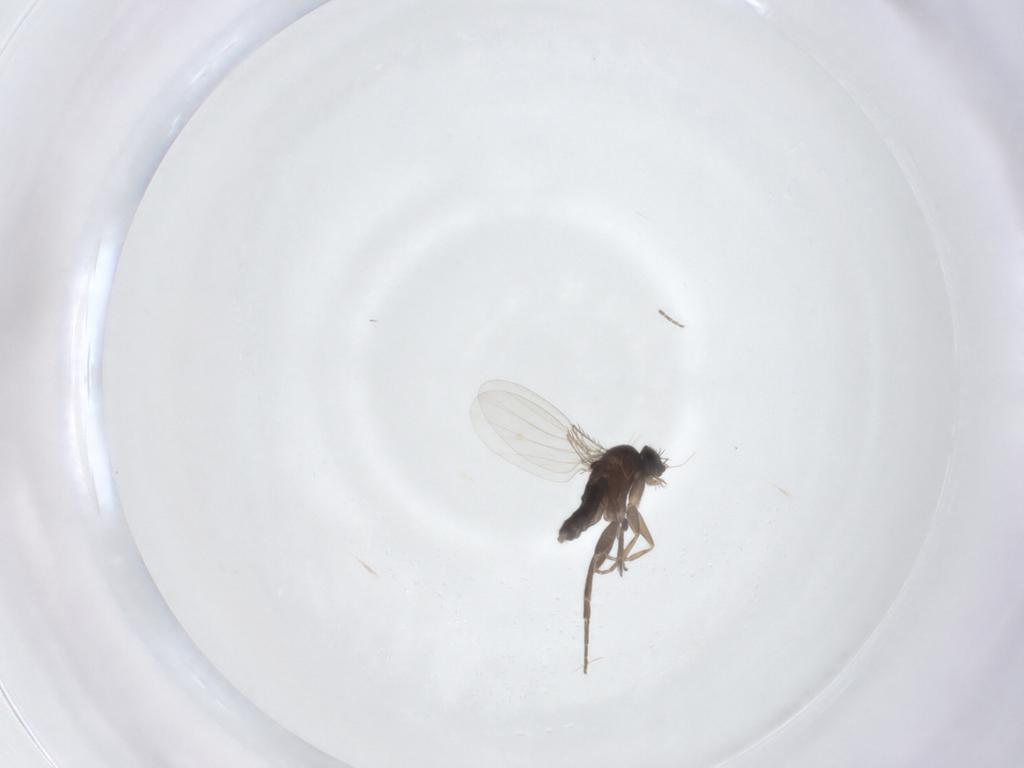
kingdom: Animalia
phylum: Arthropoda
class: Insecta
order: Diptera
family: Phoridae
